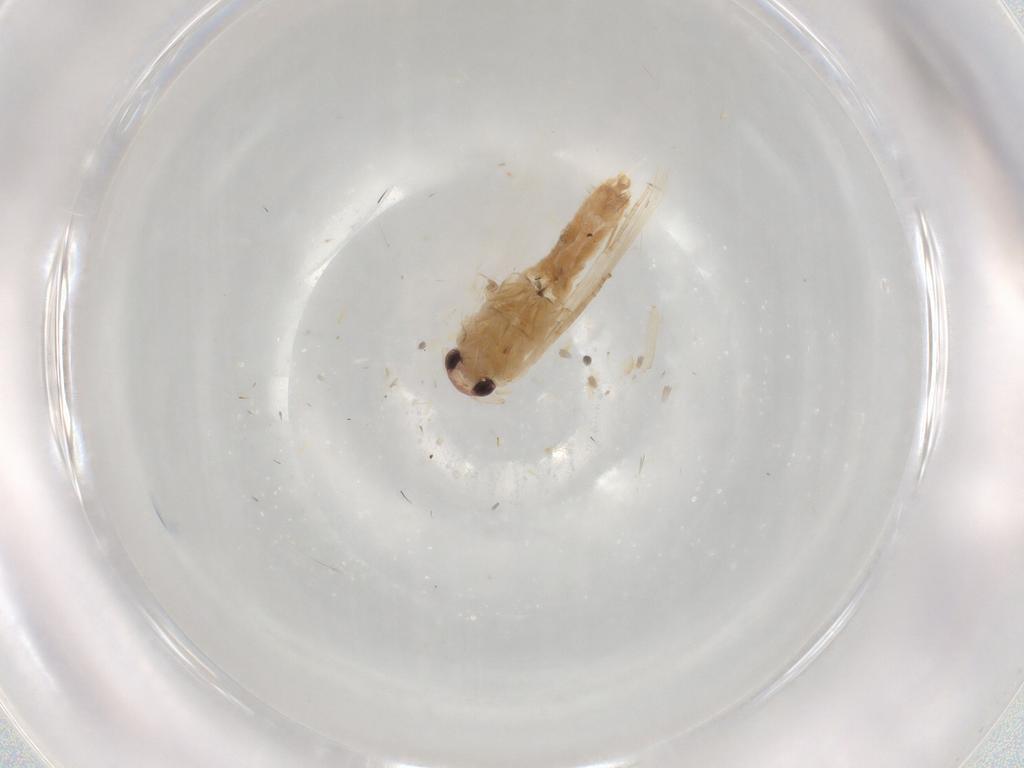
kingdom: Animalia
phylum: Arthropoda
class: Insecta
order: Lepidoptera
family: Bucculatricidae
